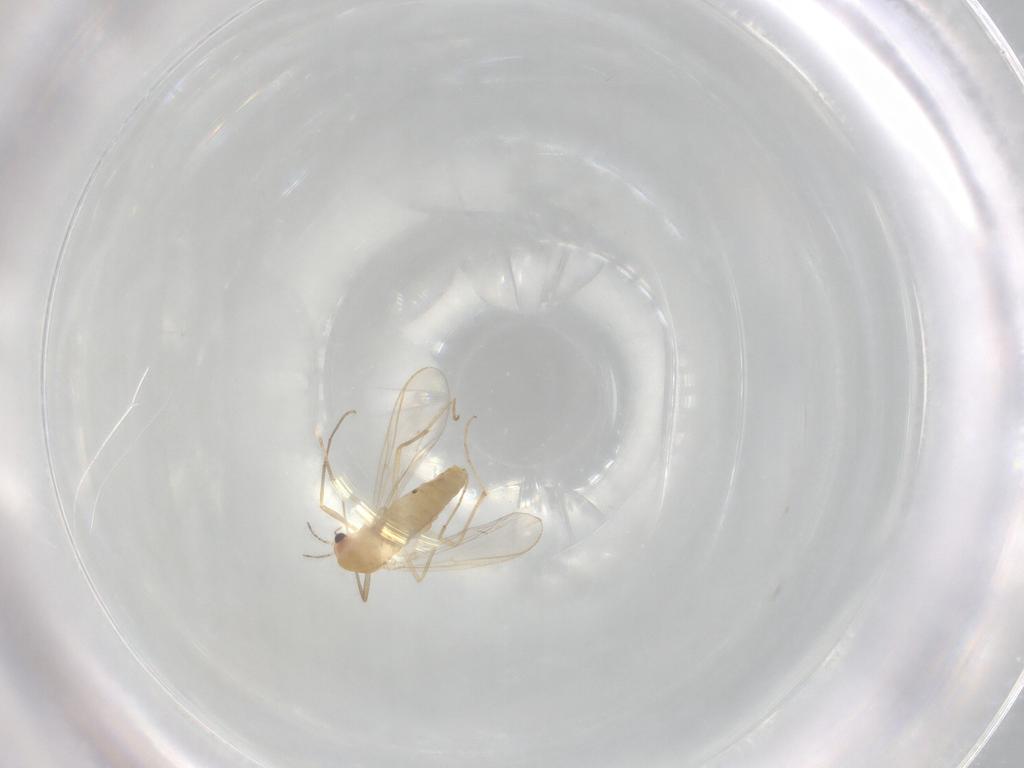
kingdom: Animalia
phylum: Arthropoda
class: Insecta
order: Diptera
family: Chironomidae
